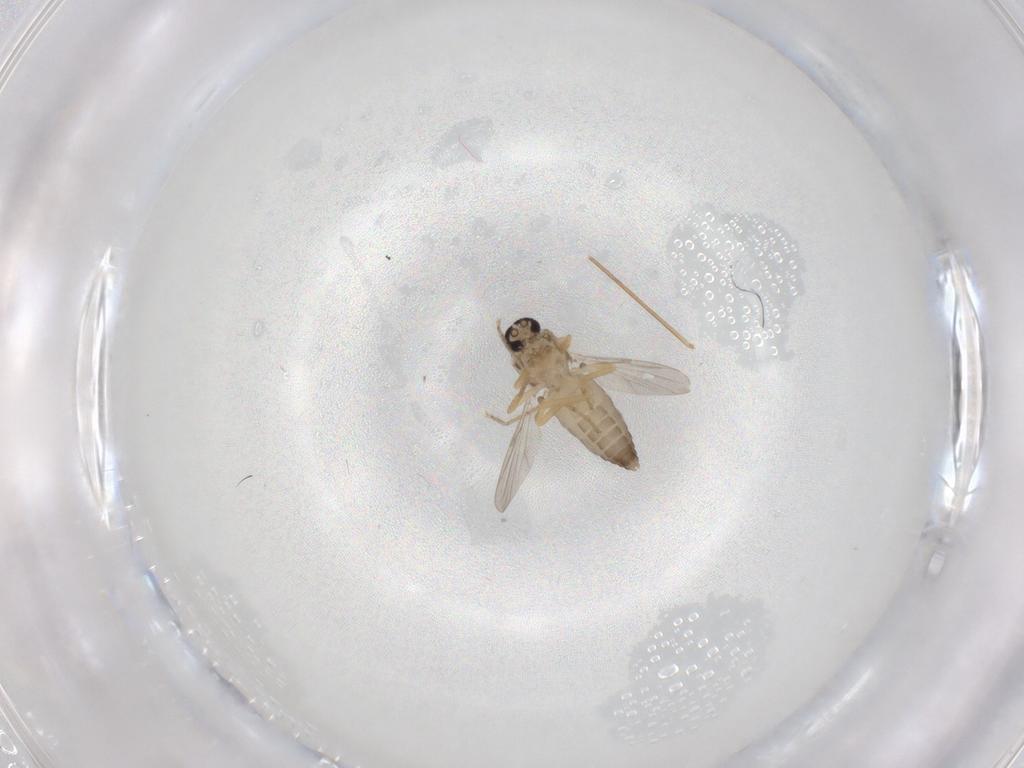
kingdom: Animalia
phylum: Arthropoda
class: Insecta
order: Diptera
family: Ceratopogonidae
